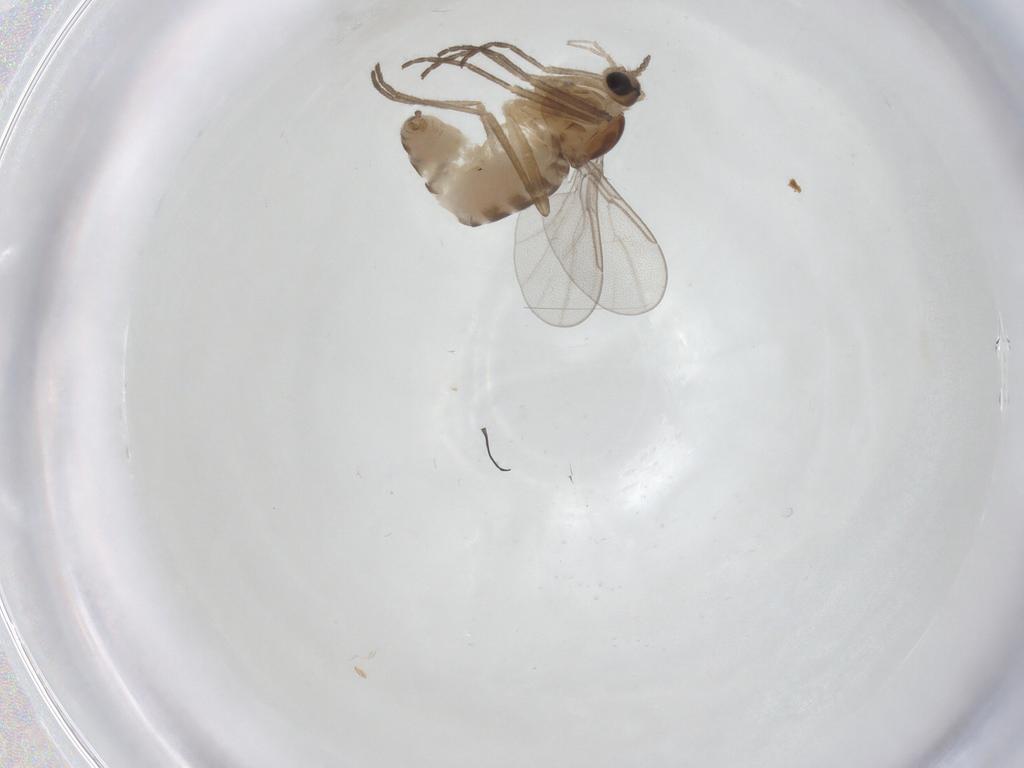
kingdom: Animalia
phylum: Arthropoda
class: Insecta
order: Diptera
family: Cecidomyiidae
